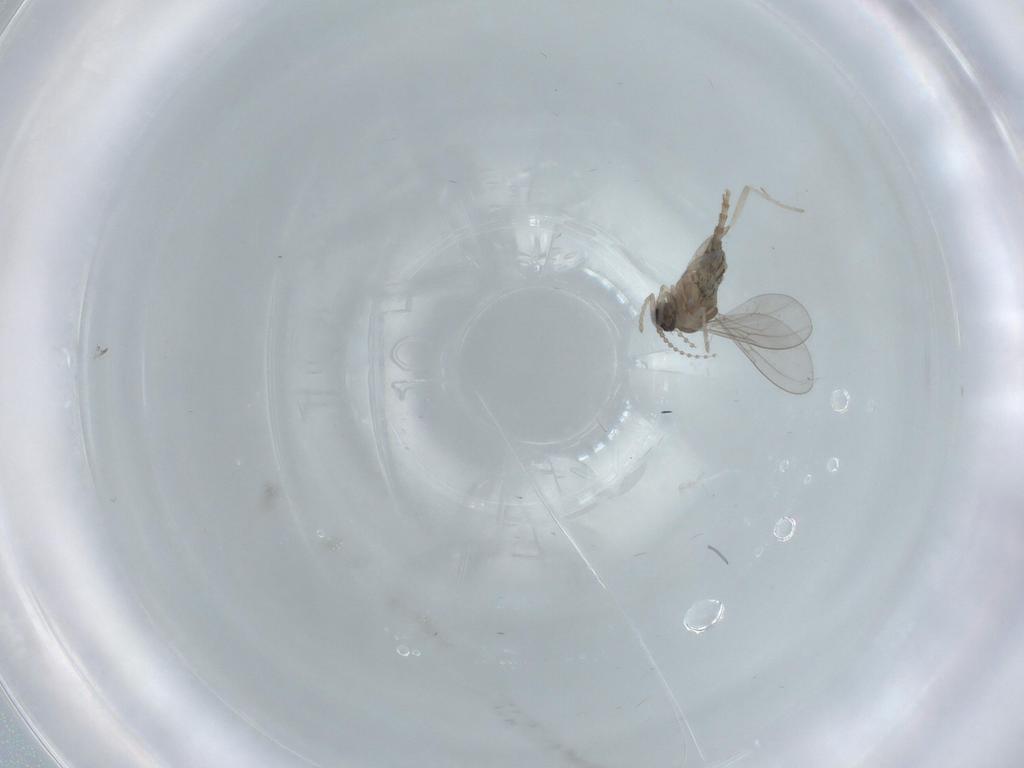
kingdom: Animalia
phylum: Arthropoda
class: Insecta
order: Diptera
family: Cecidomyiidae
